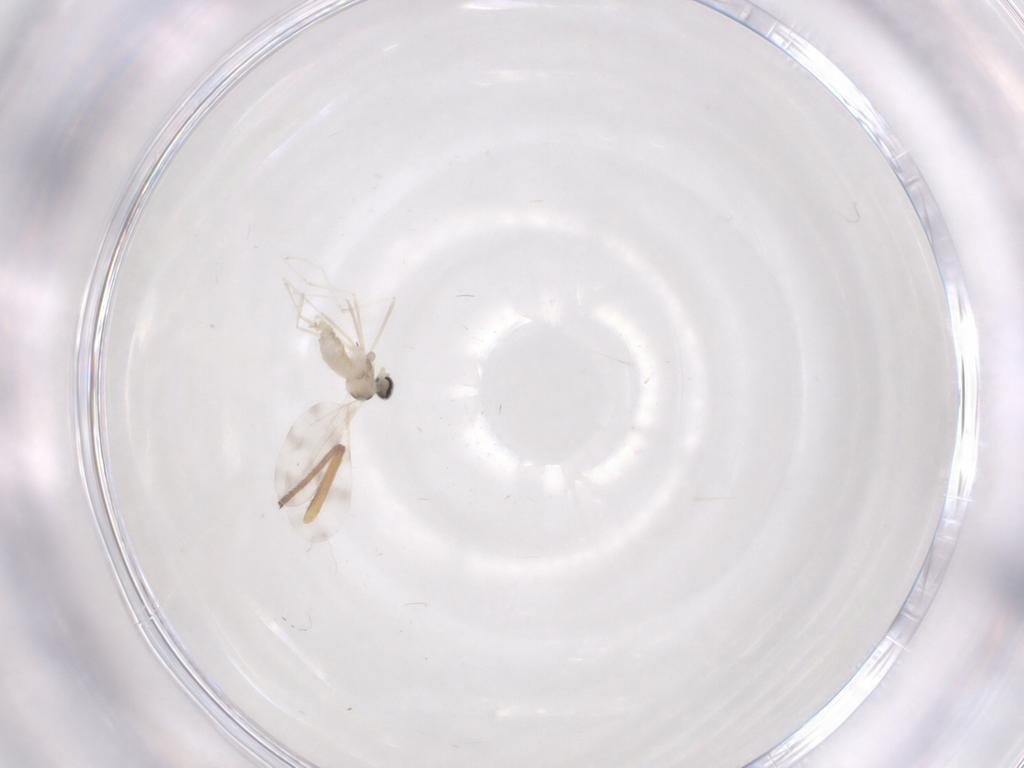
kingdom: Animalia
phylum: Arthropoda
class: Insecta
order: Diptera
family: Cecidomyiidae
